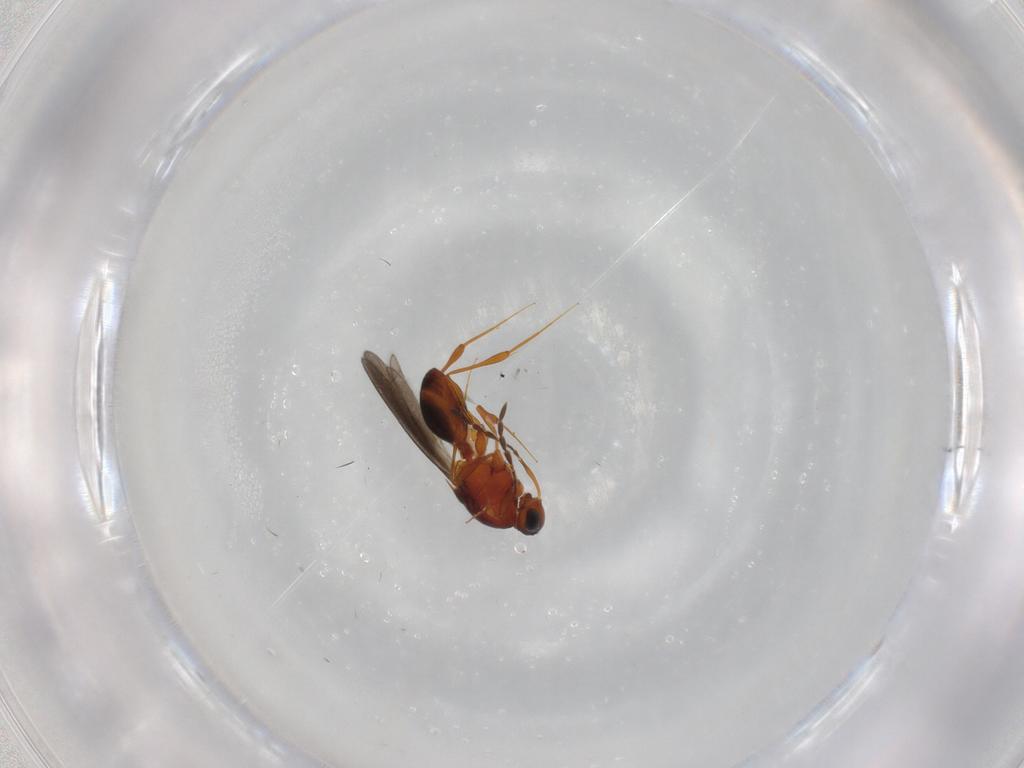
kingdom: Animalia
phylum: Arthropoda
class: Insecta
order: Hymenoptera
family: Platygastridae
